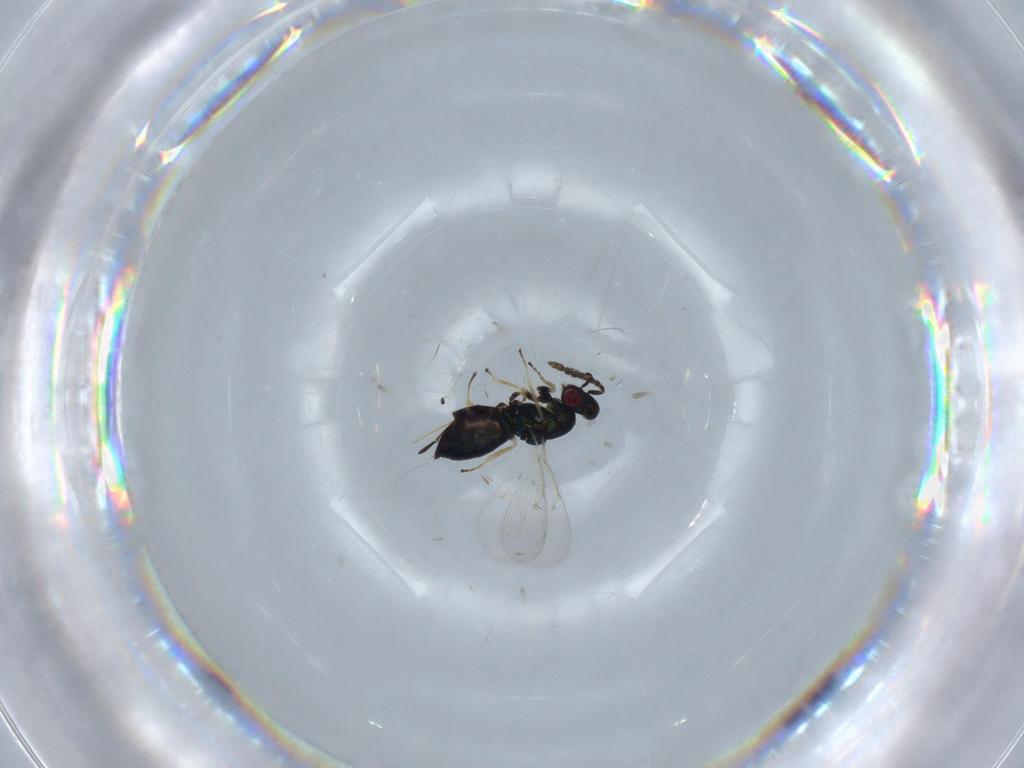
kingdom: Animalia
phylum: Arthropoda
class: Insecta
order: Hymenoptera
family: Eulophidae
